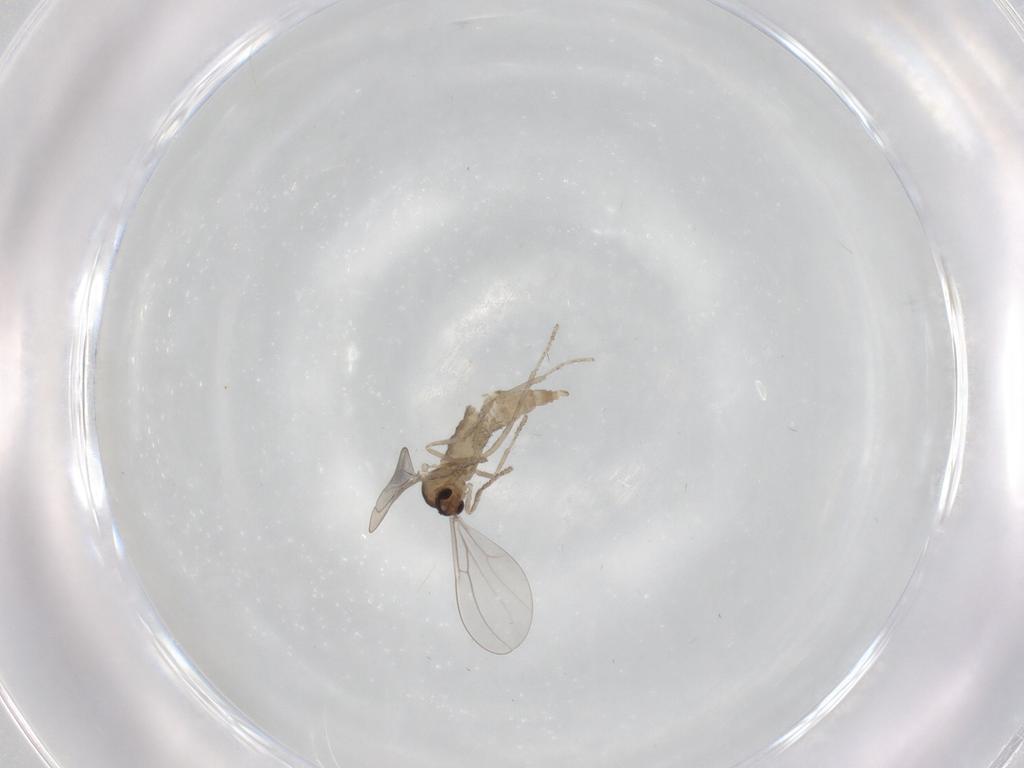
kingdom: Animalia
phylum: Arthropoda
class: Insecta
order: Diptera
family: Cecidomyiidae
